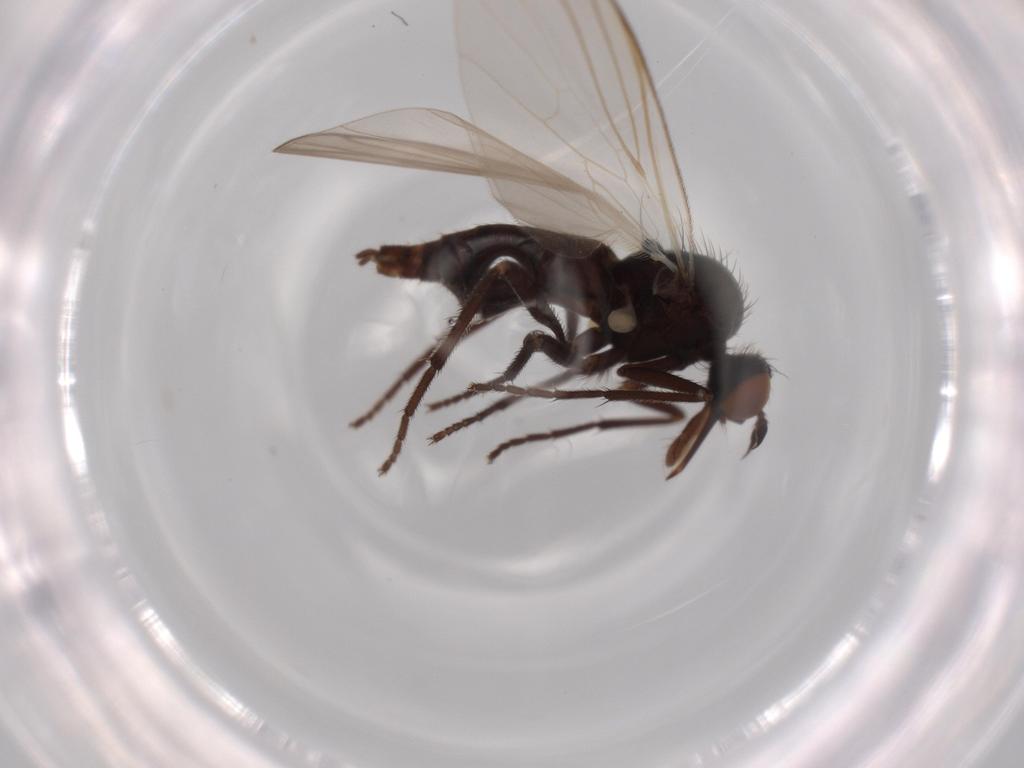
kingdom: Animalia
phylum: Arthropoda
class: Insecta
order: Diptera
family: Empididae
